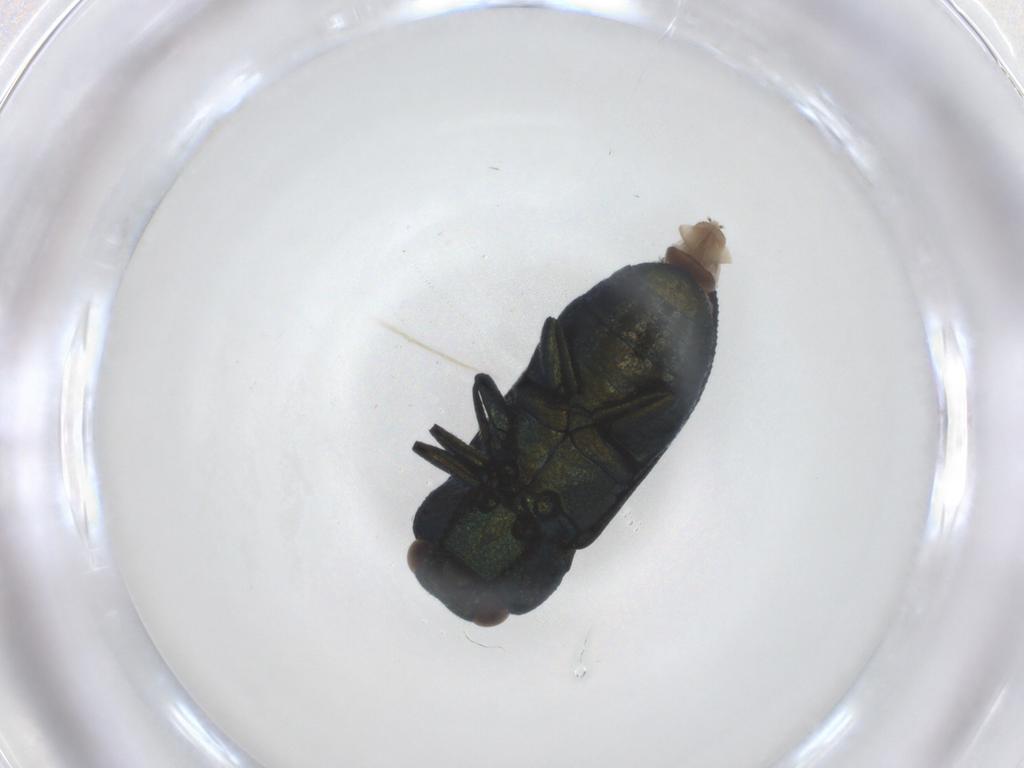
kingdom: Animalia
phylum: Arthropoda
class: Insecta
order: Coleoptera
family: Buprestidae
